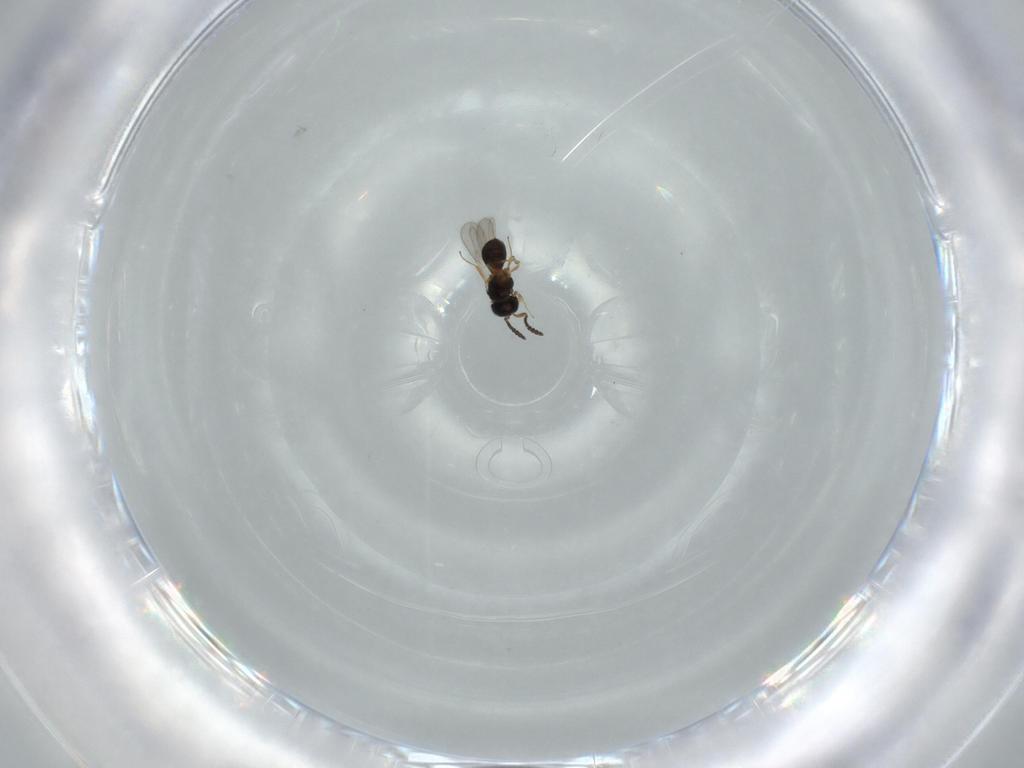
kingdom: Animalia
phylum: Arthropoda
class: Insecta
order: Hymenoptera
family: Scelionidae
